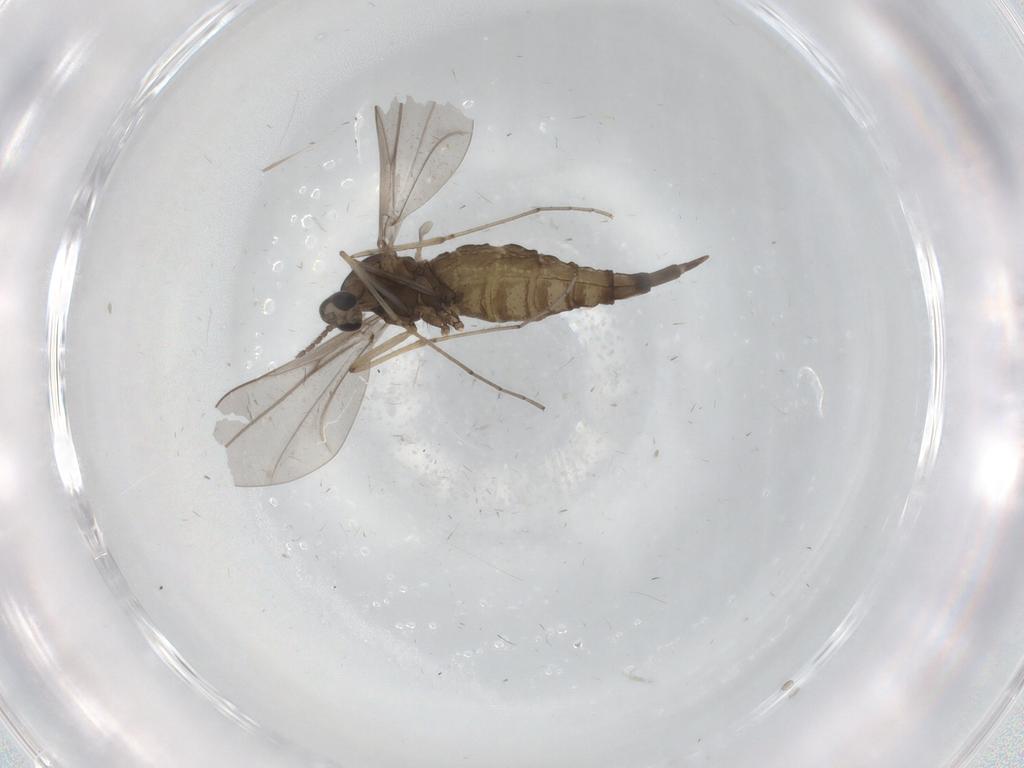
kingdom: Animalia
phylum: Arthropoda
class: Insecta
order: Diptera
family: Cecidomyiidae
